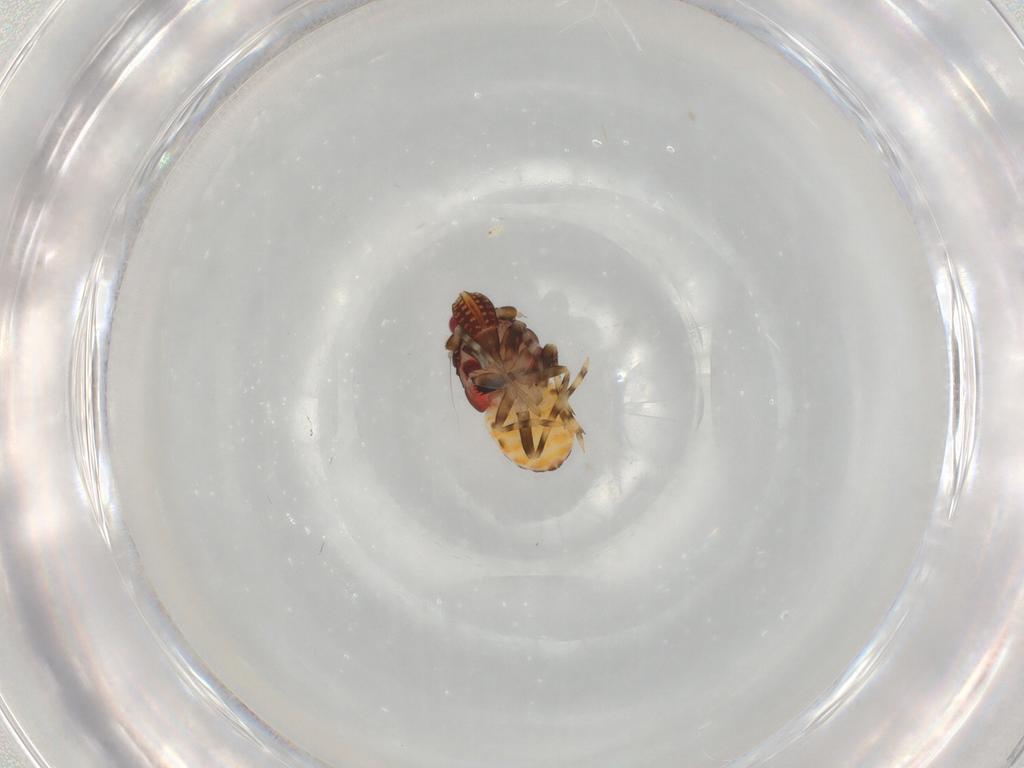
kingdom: Animalia
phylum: Arthropoda
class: Insecta
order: Hemiptera
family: Delphacidae
